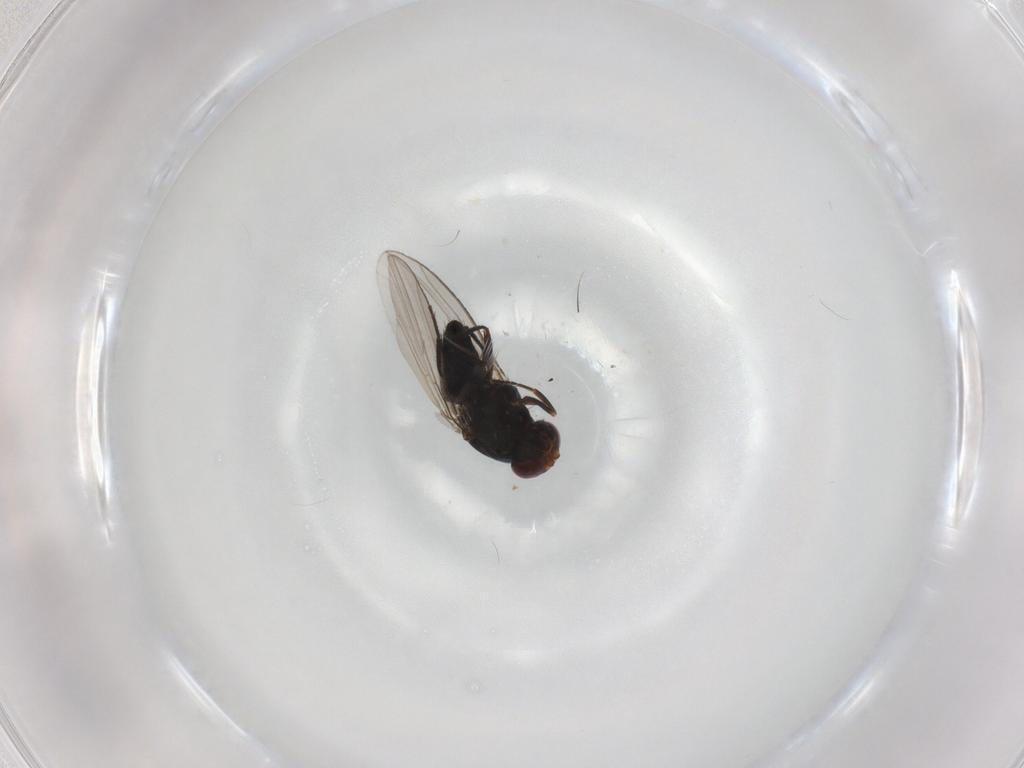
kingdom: Animalia
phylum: Arthropoda
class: Insecta
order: Diptera
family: Carnidae
